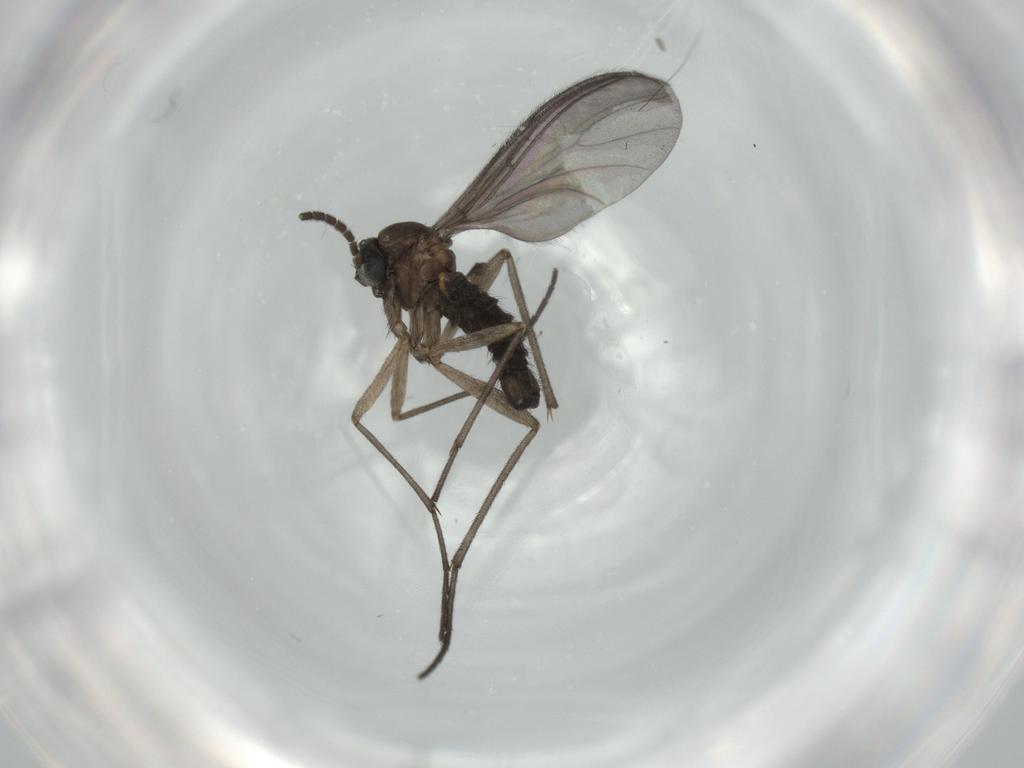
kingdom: Animalia
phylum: Arthropoda
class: Insecta
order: Diptera
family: Sciaridae
